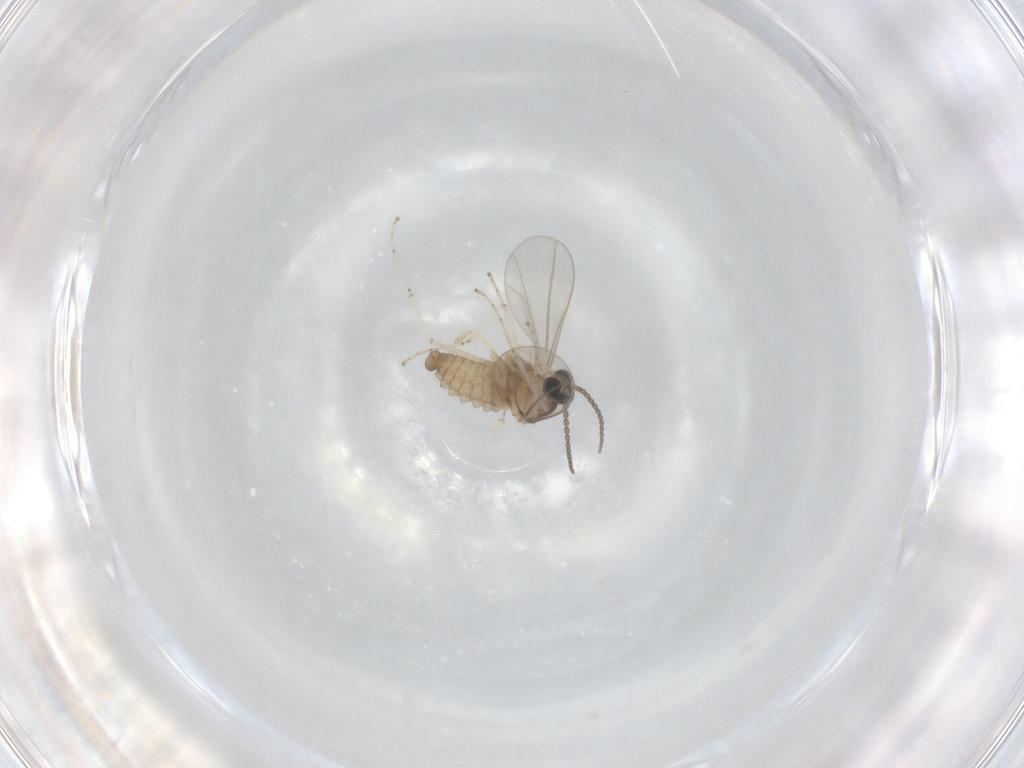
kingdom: Animalia
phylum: Arthropoda
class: Insecta
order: Diptera
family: Cecidomyiidae
